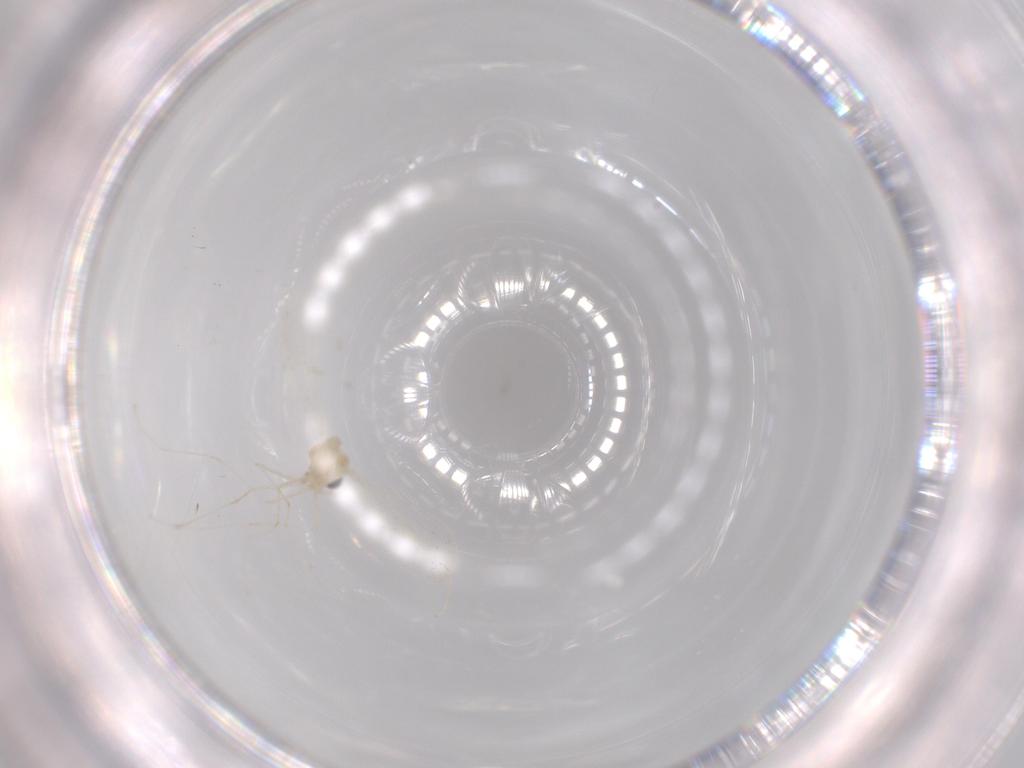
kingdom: Animalia
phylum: Arthropoda
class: Insecta
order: Diptera
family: Cecidomyiidae
